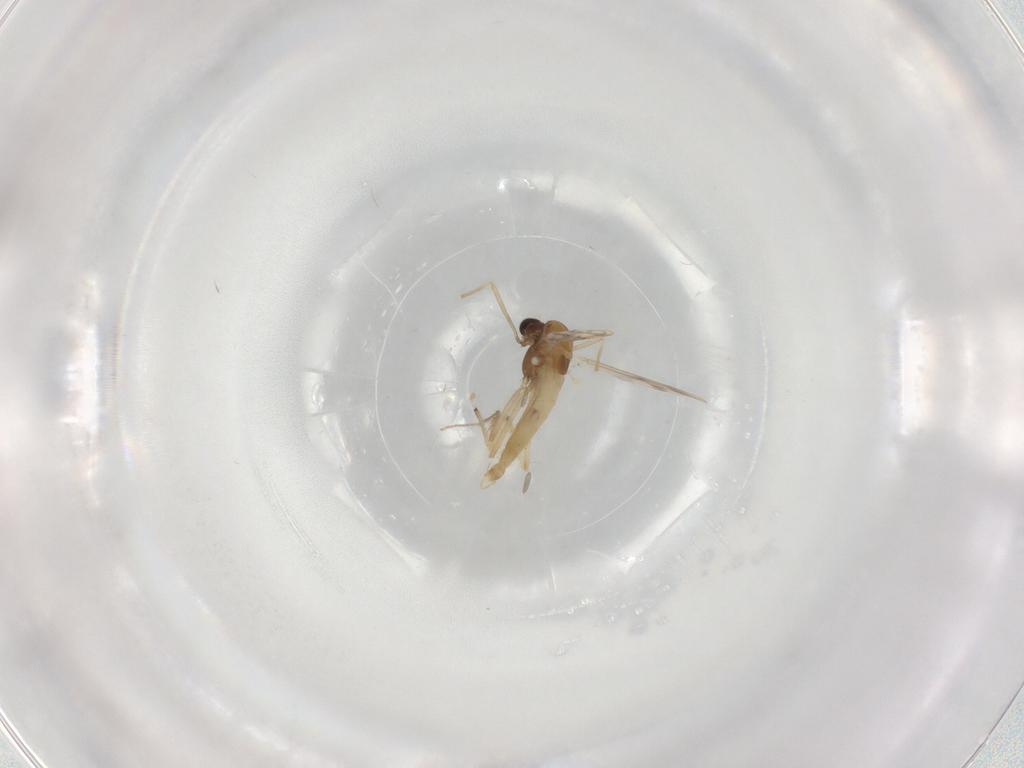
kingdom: Animalia
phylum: Arthropoda
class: Insecta
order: Diptera
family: Chironomidae
